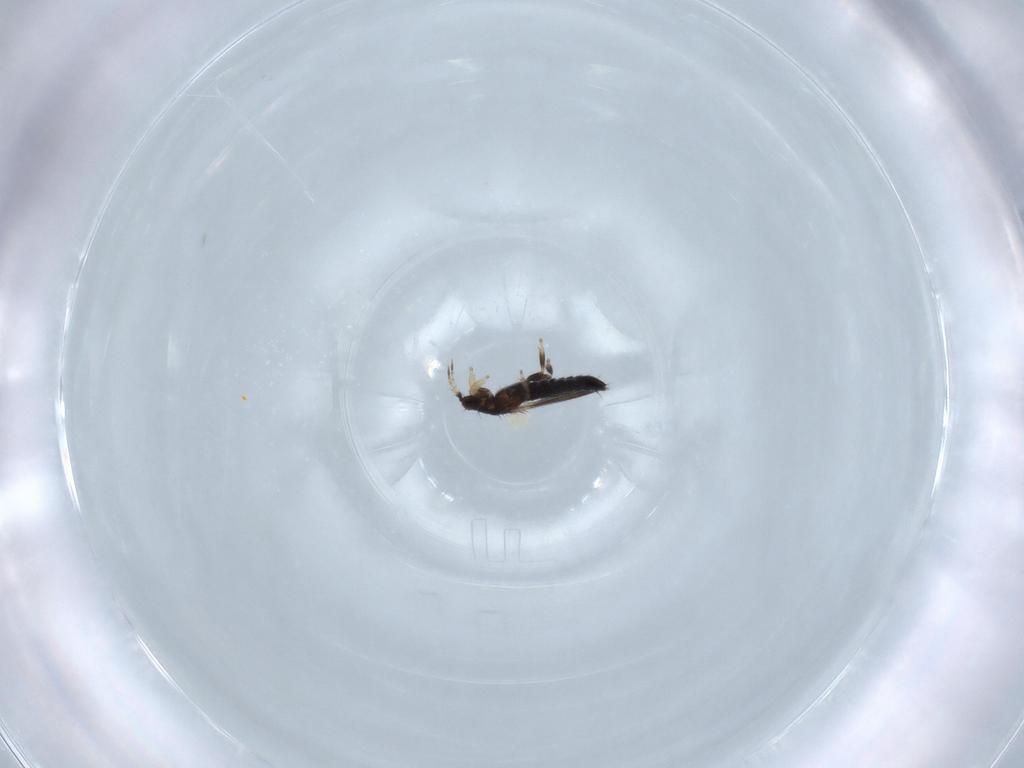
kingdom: Animalia
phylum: Arthropoda
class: Insecta
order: Thysanoptera
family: Thripidae
